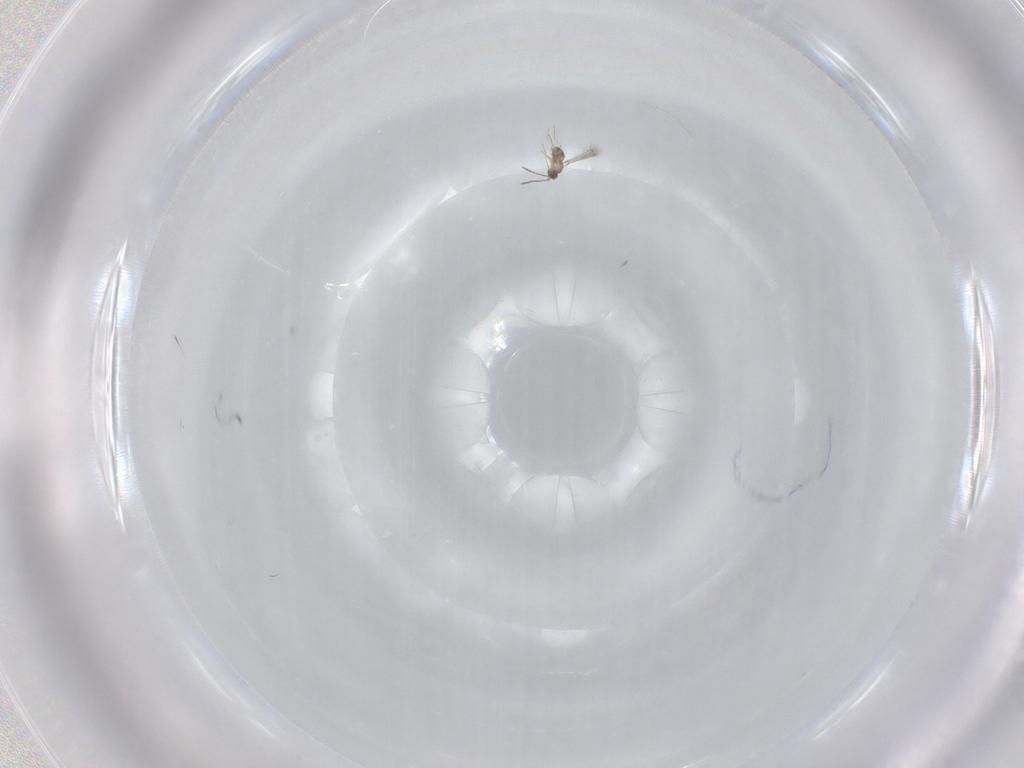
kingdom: Animalia
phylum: Arthropoda
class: Insecta
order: Hymenoptera
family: Mymaridae
